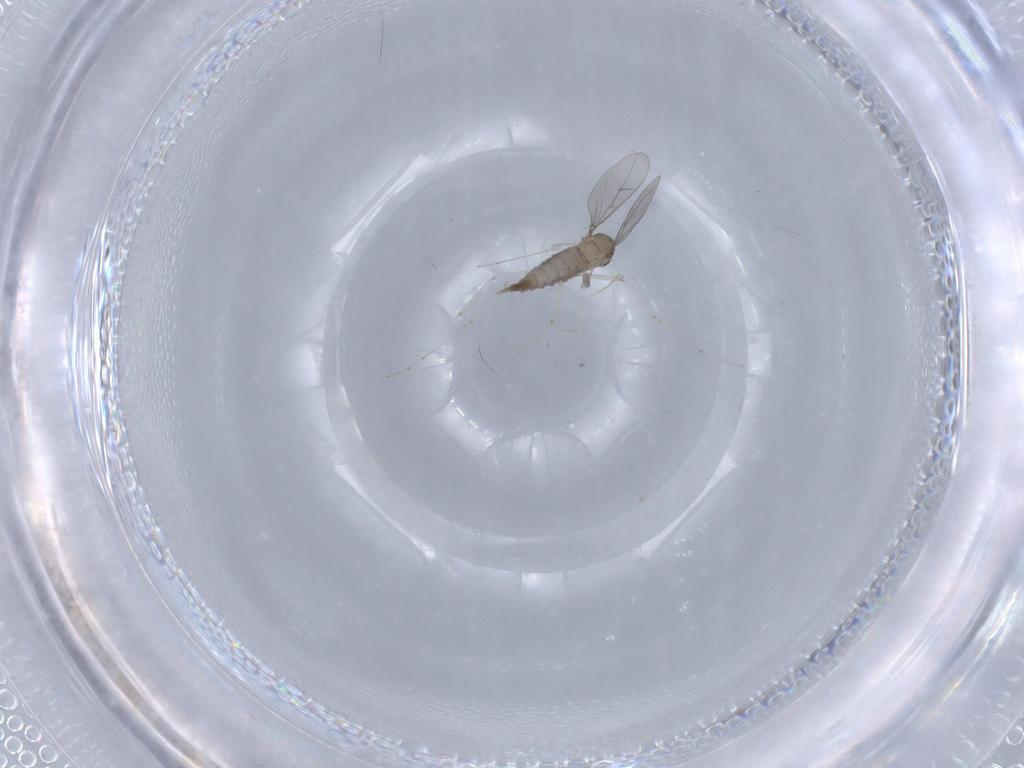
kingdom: Animalia
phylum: Arthropoda
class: Insecta
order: Diptera
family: Cecidomyiidae
